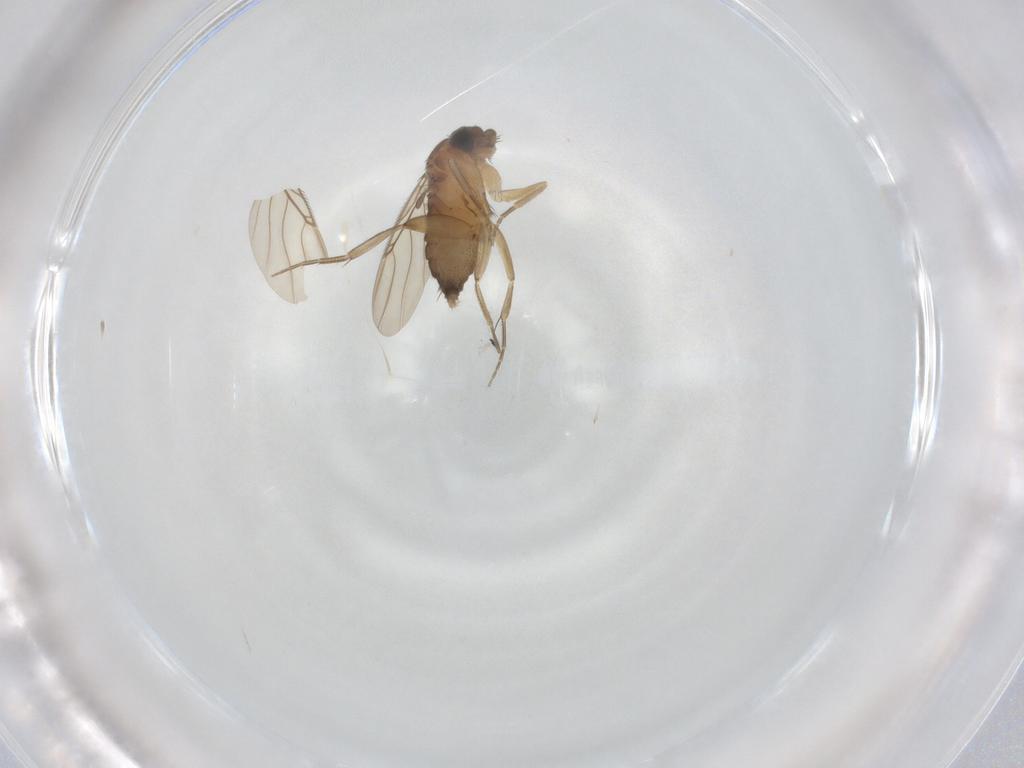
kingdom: Animalia
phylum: Arthropoda
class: Insecta
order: Diptera
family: Phoridae
